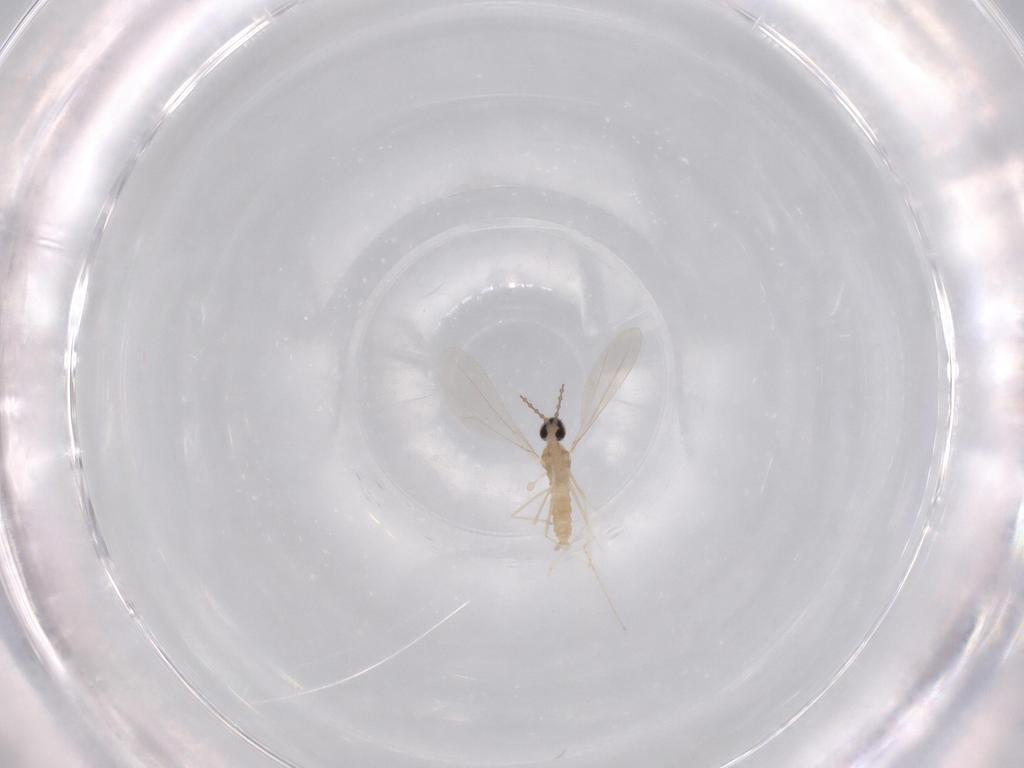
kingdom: Animalia
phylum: Arthropoda
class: Insecta
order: Diptera
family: Cecidomyiidae
